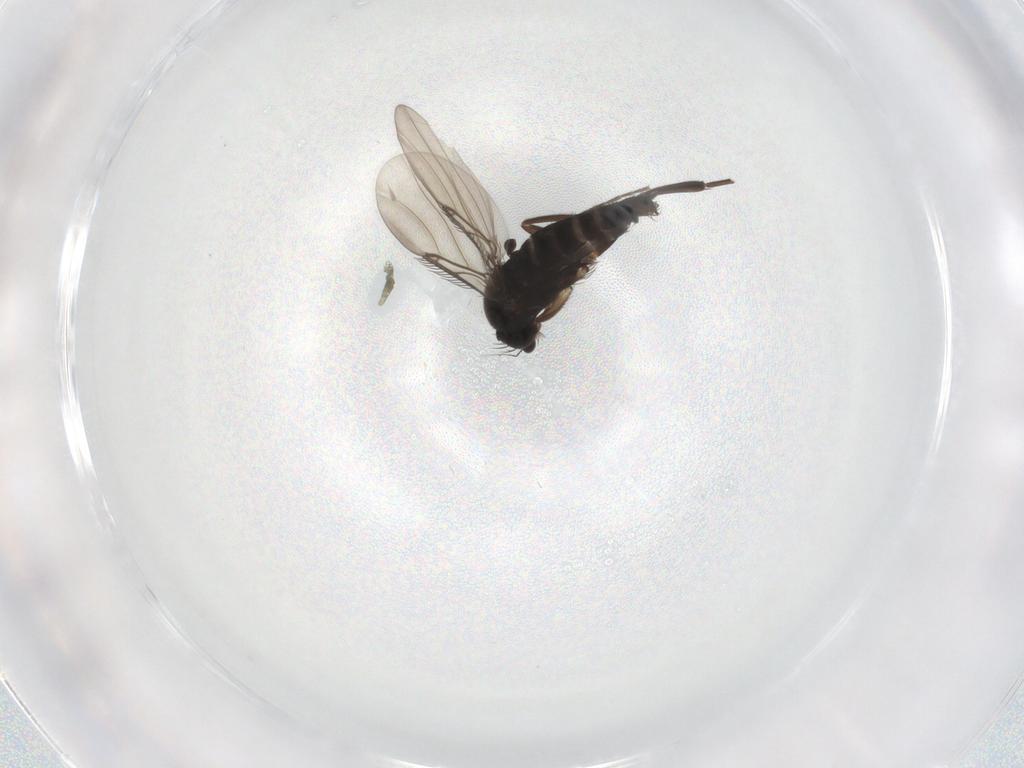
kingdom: Animalia
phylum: Arthropoda
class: Insecta
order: Diptera
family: Phoridae
